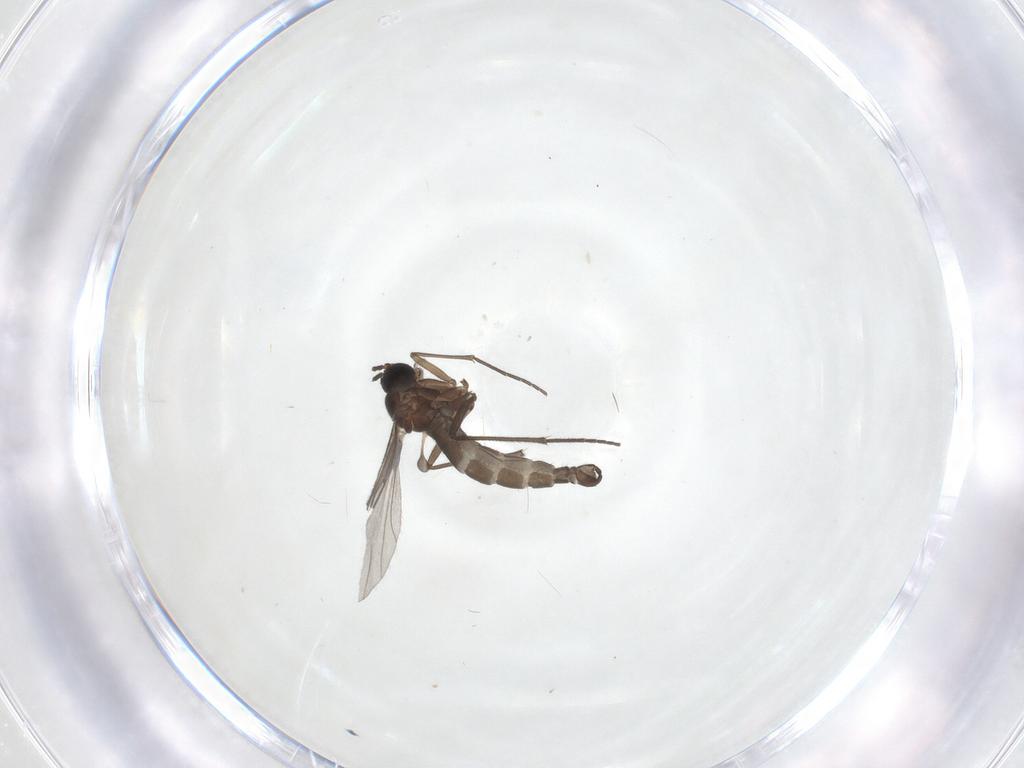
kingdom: Animalia
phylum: Arthropoda
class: Insecta
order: Diptera
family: Sciaridae
